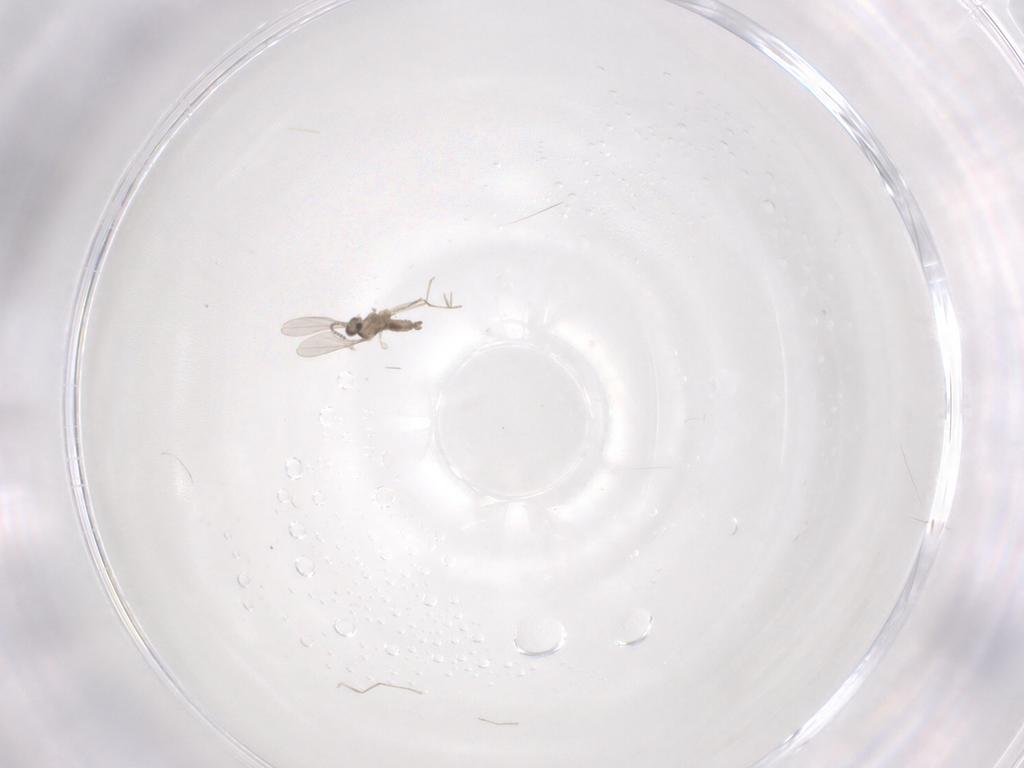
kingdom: Animalia
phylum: Arthropoda
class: Insecta
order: Diptera
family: Cecidomyiidae
